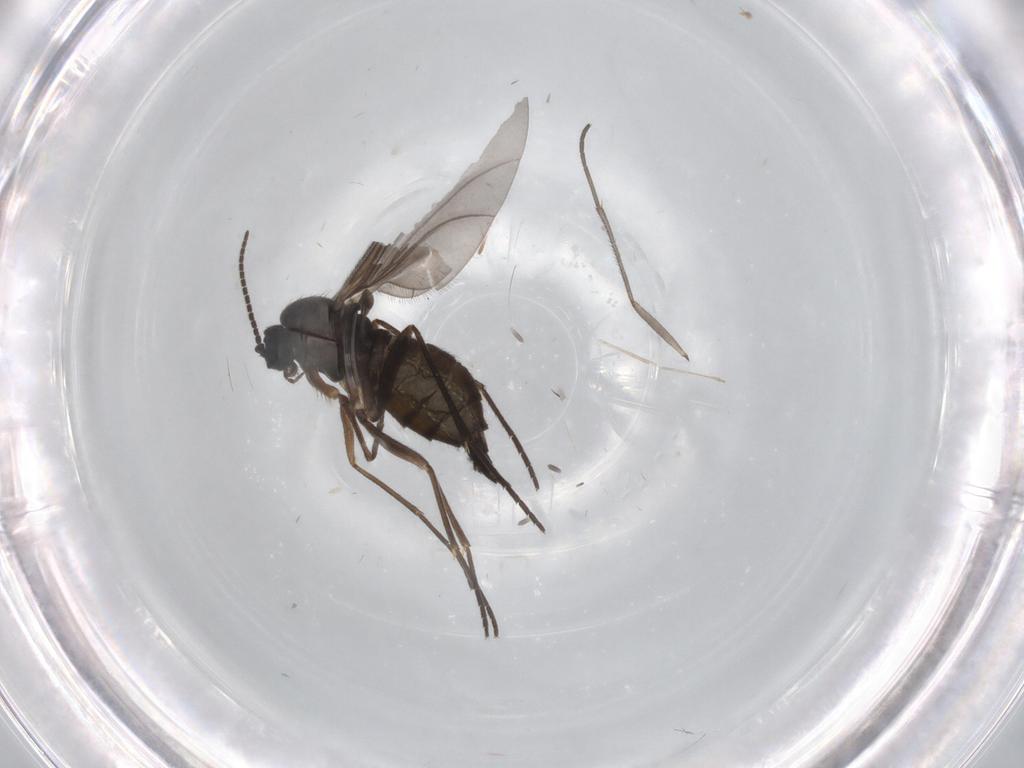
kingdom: Animalia
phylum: Arthropoda
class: Insecta
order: Diptera
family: Sciaridae
